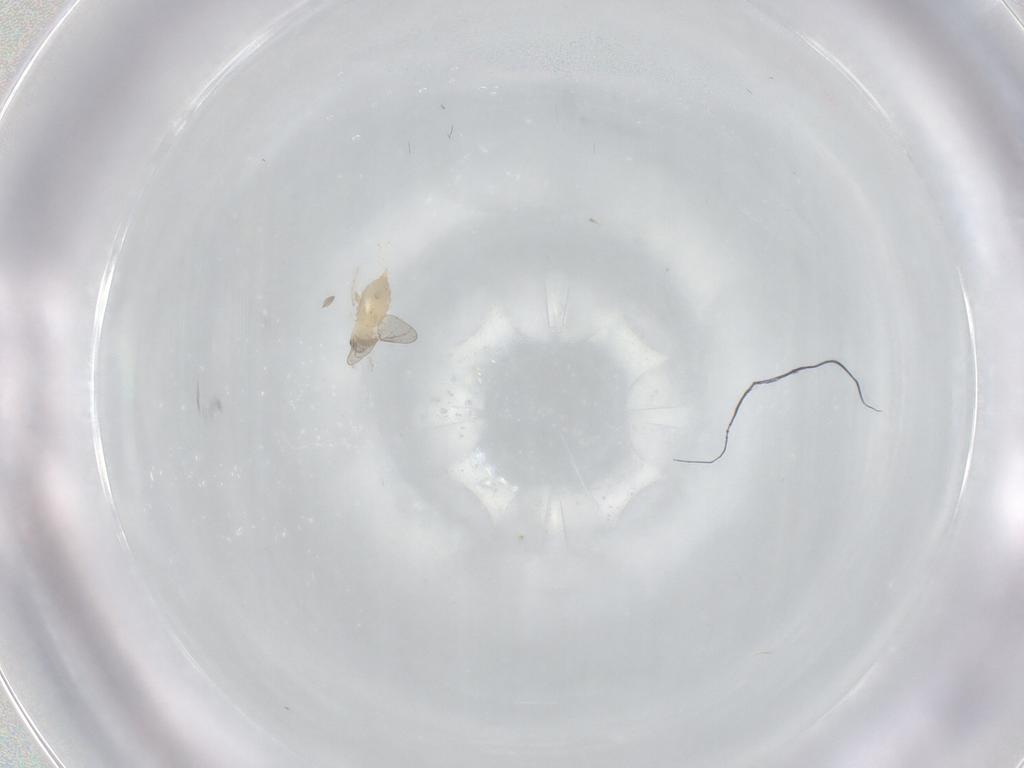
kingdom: Animalia
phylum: Arthropoda
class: Insecta
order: Diptera
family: Cecidomyiidae
